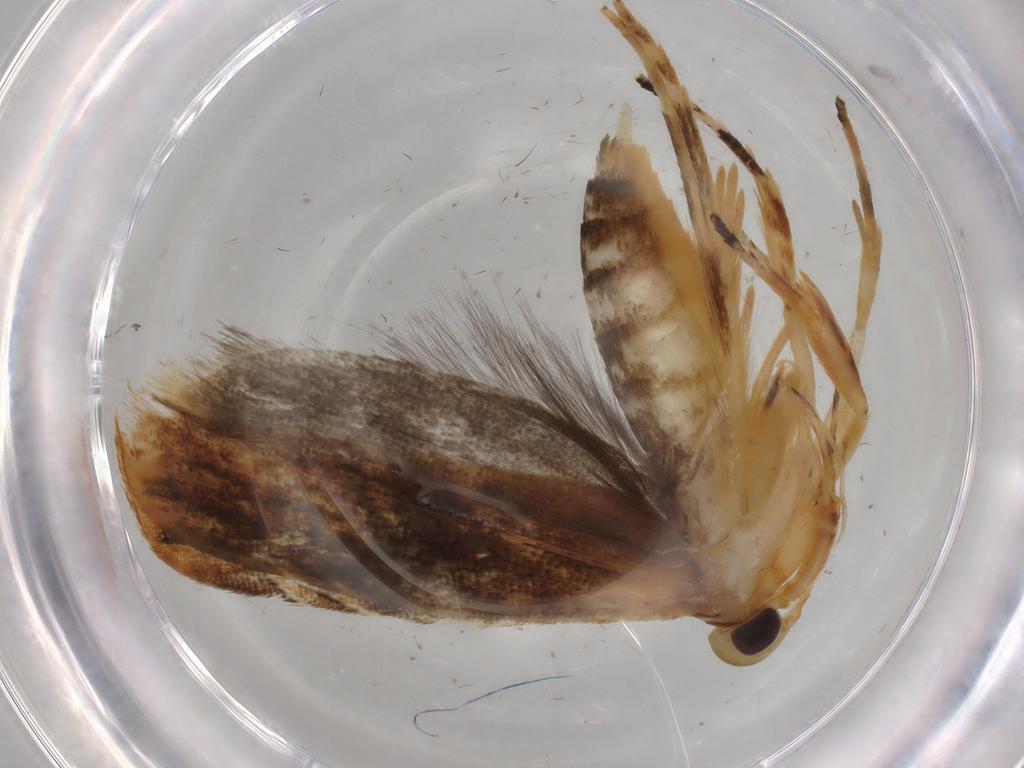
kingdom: Animalia
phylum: Arthropoda
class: Insecta
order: Lepidoptera
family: Gelechiidae
